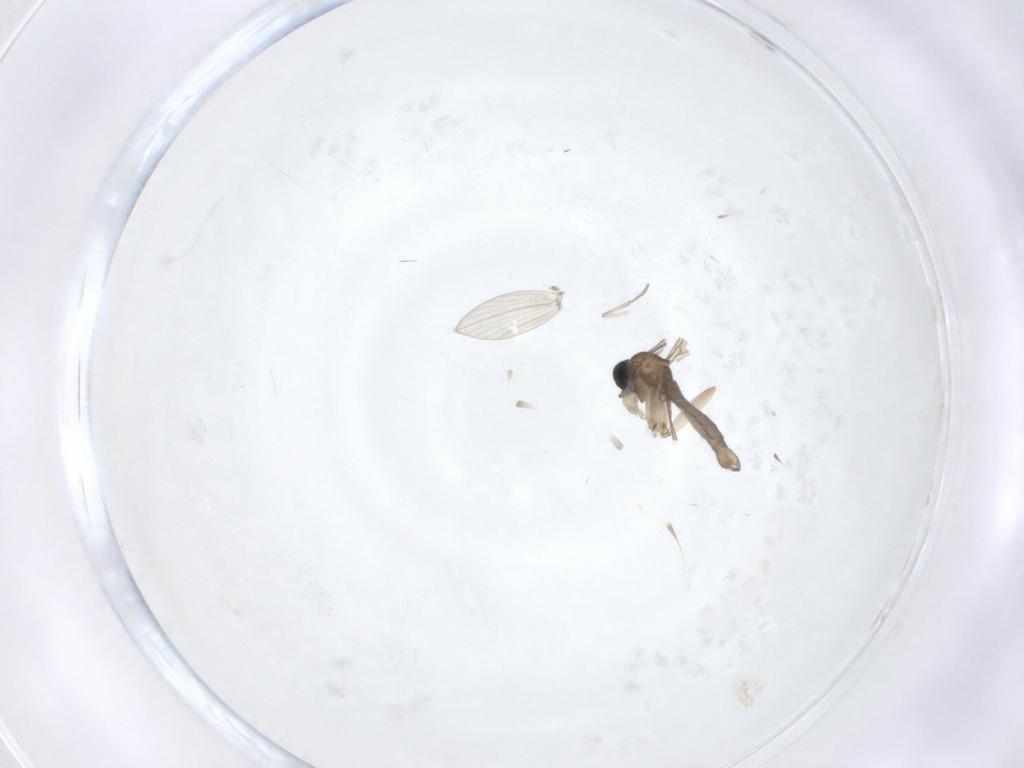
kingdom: Animalia
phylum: Arthropoda
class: Insecta
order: Diptera
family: Sciaridae
